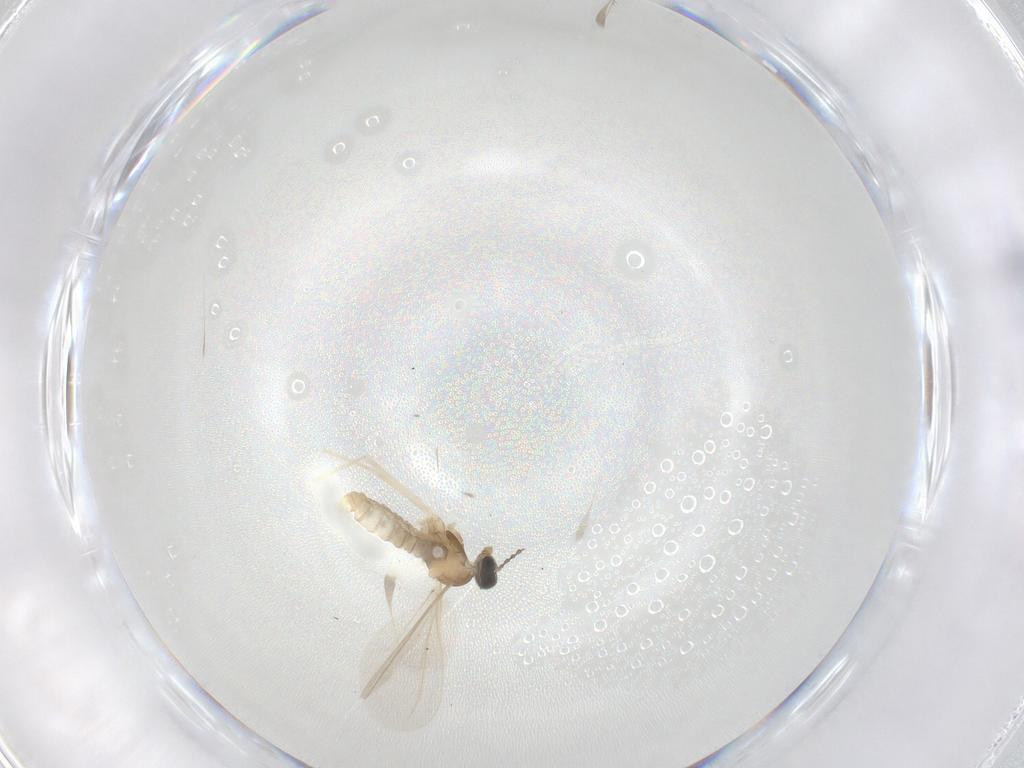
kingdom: Animalia
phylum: Arthropoda
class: Insecta
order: Diptera
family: Cecidomyiidae
